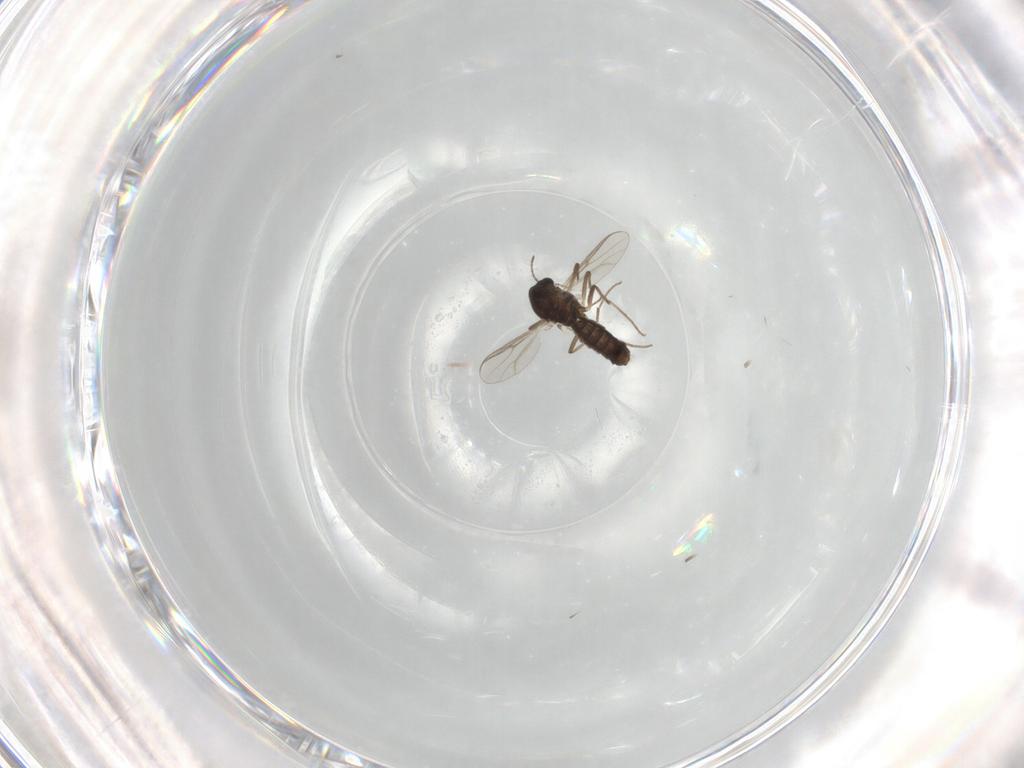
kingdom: Animalia
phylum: Arthropoda
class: Insecta
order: Diptera
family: Chironomidae
